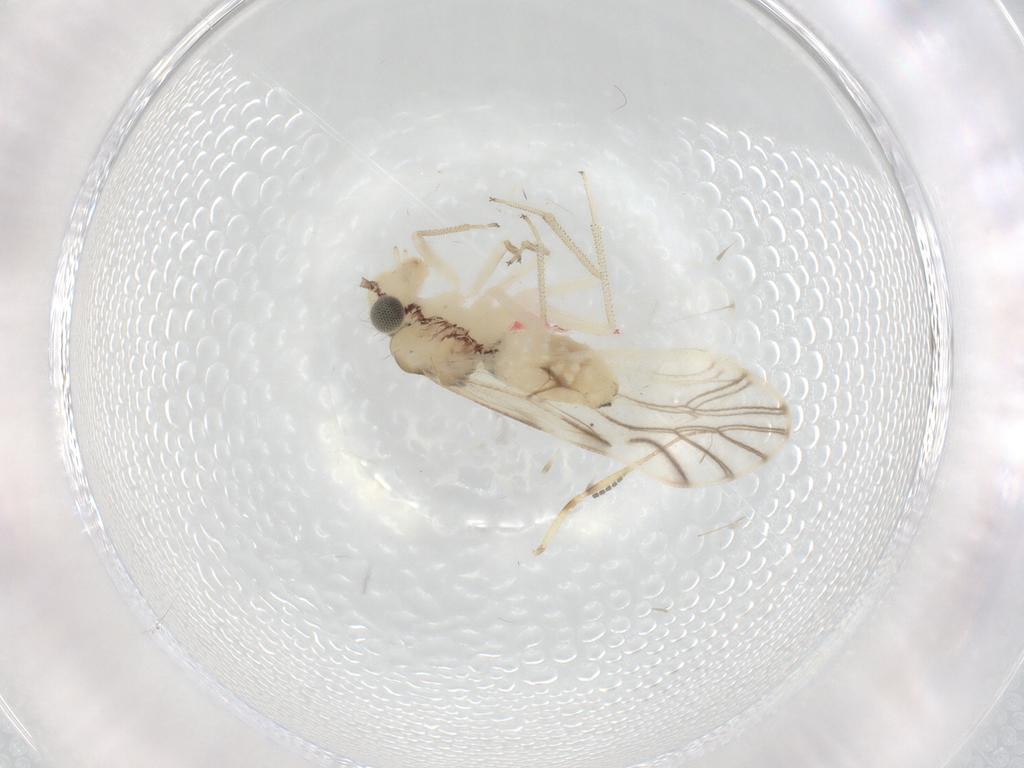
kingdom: Animalia
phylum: Arthropoda
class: Insecta
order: Psocodea
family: Philotarsidae
